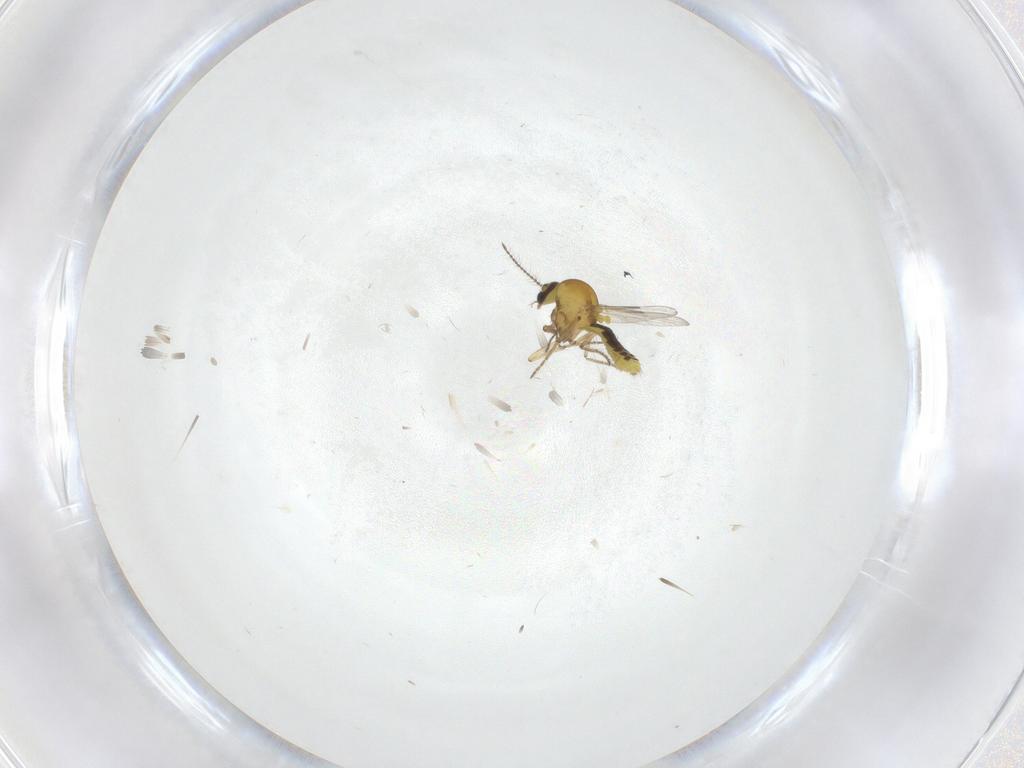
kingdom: Animalia
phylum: Arthropoda
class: Insecta
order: Diptera
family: Ceratopogonidae
